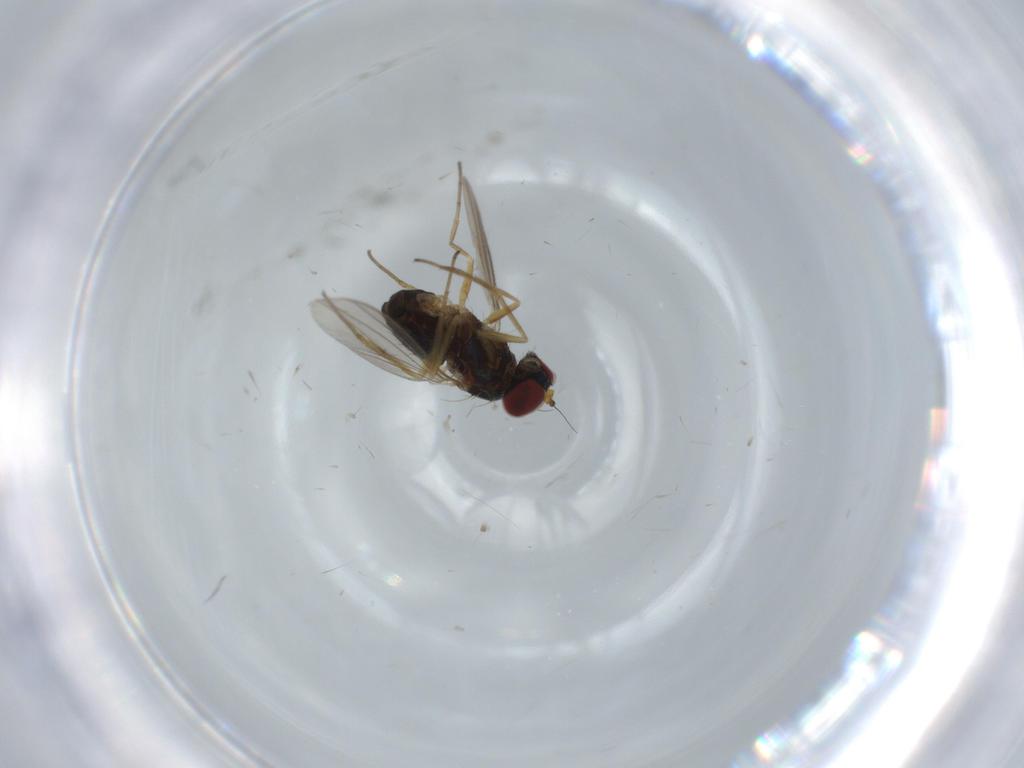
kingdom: Animalia
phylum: Arthropoda
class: Insecta
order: Diptera
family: Dolichopodidae
